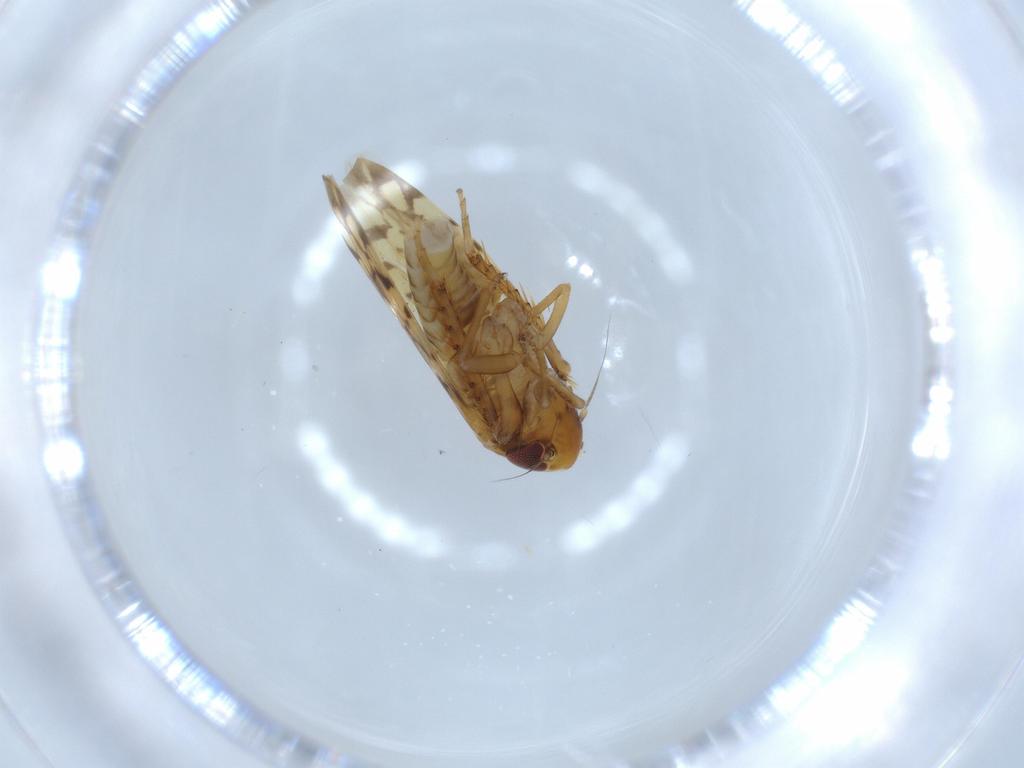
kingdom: Animalia
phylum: Arthropoda
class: Insecta
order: Hemiptera
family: Cicadellidae
